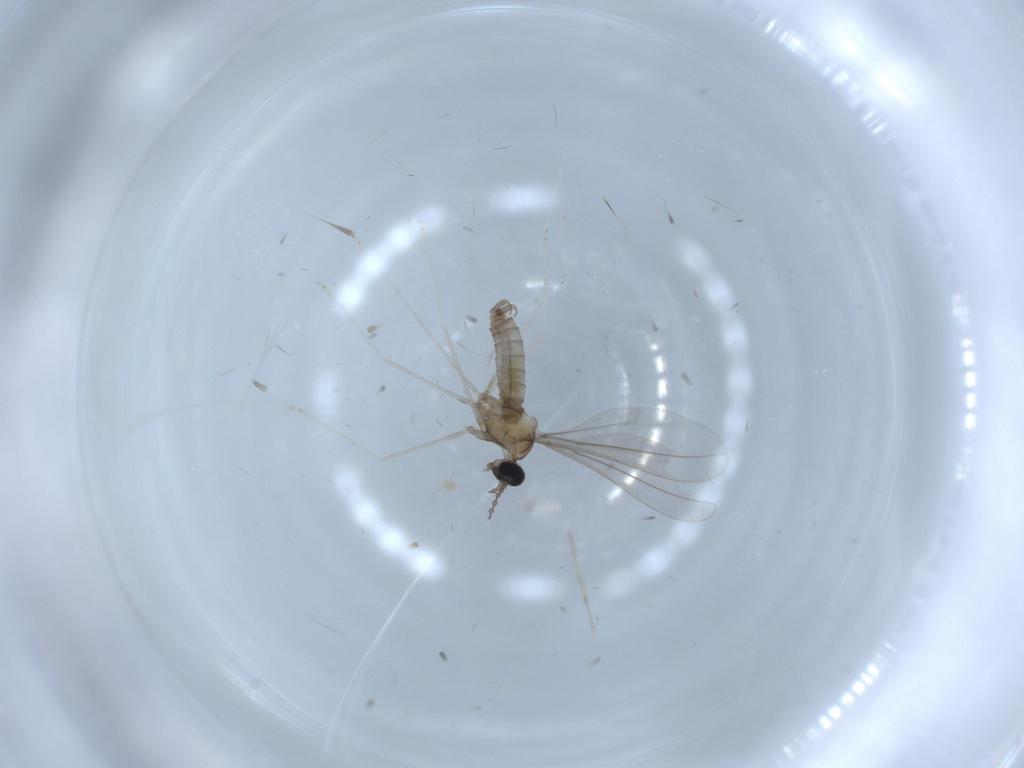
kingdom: Animalia
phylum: Arthropoda
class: Insecta
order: Diptera
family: Cecidomyiidae
